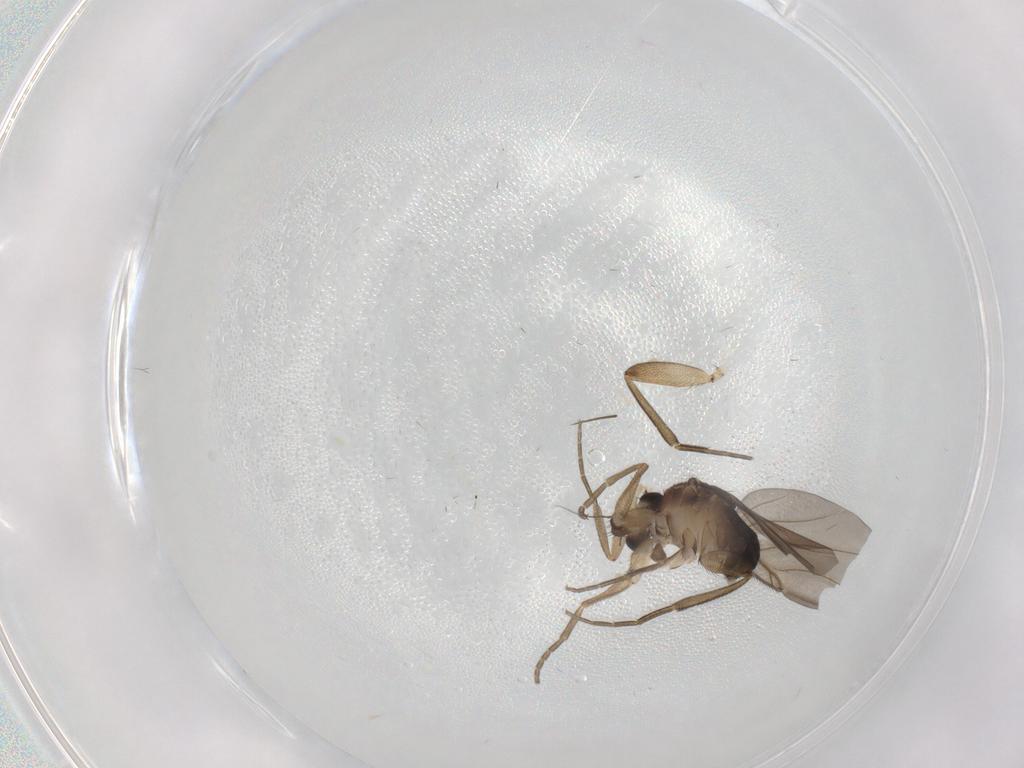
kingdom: Animalia
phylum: Arthropoda
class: Insecta
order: Diptera
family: Phoridae
